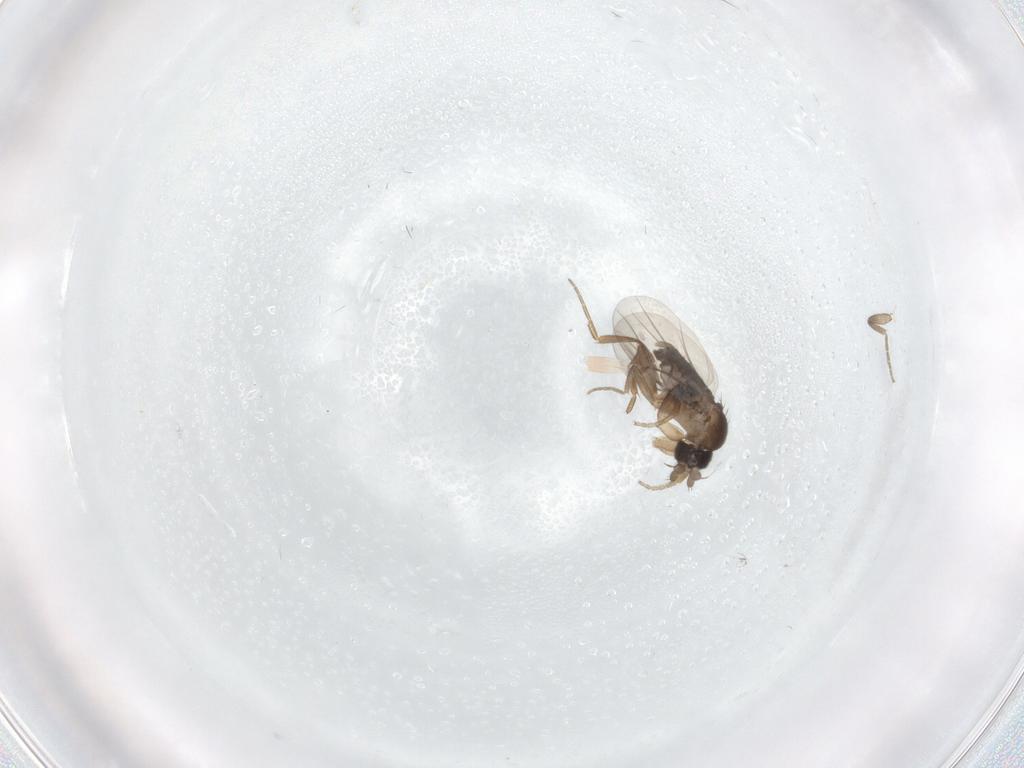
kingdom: Animalia
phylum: Arthropoda
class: Insecta
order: Diptera
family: Phoridae
